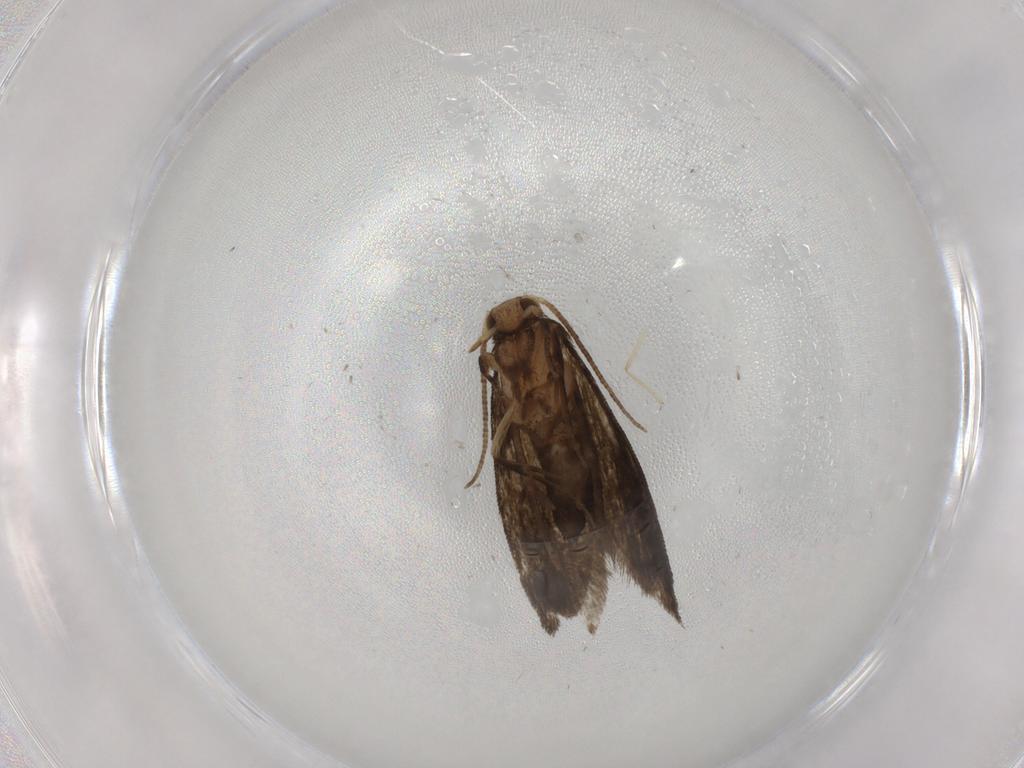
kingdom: Animalia
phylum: Arthropoda
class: Insecta
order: Lepidoptera
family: Tineidae
